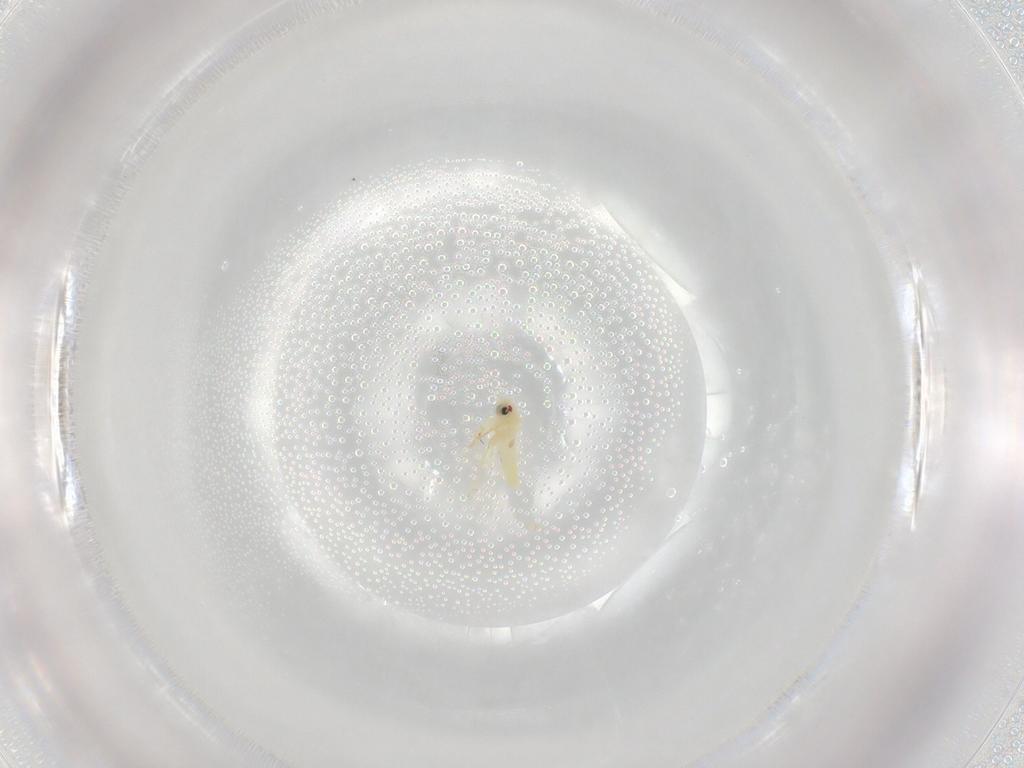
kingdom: Animalia
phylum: Arthropoda
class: Insecta
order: Hemiptera
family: Aleyrodidae
